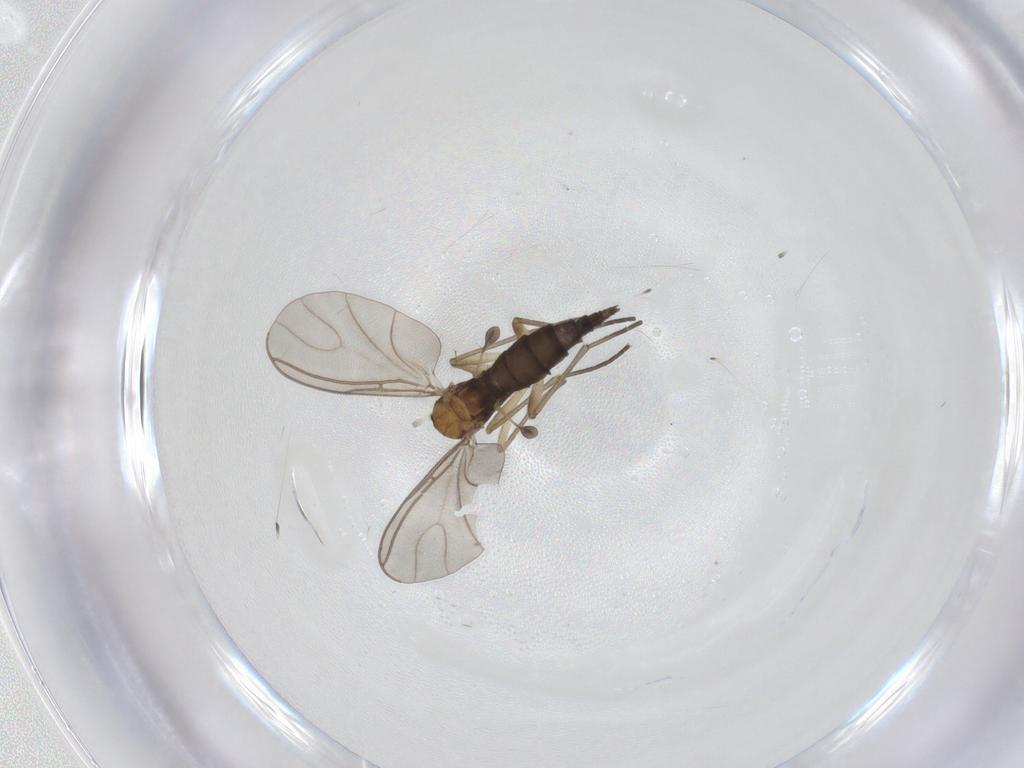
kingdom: Animalia
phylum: Arthropoda
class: Insecta
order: Diptera
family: Sciaridae
